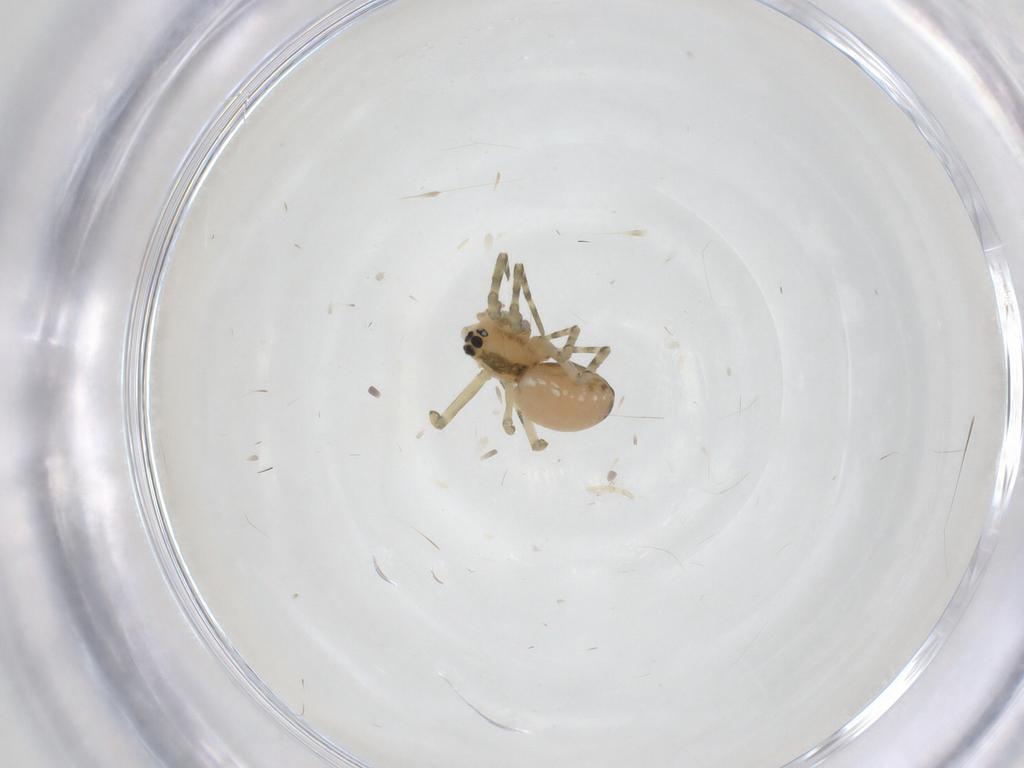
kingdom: Animalia
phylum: Arthropoda
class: Arachnida
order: Araneae
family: Linyphiidae
